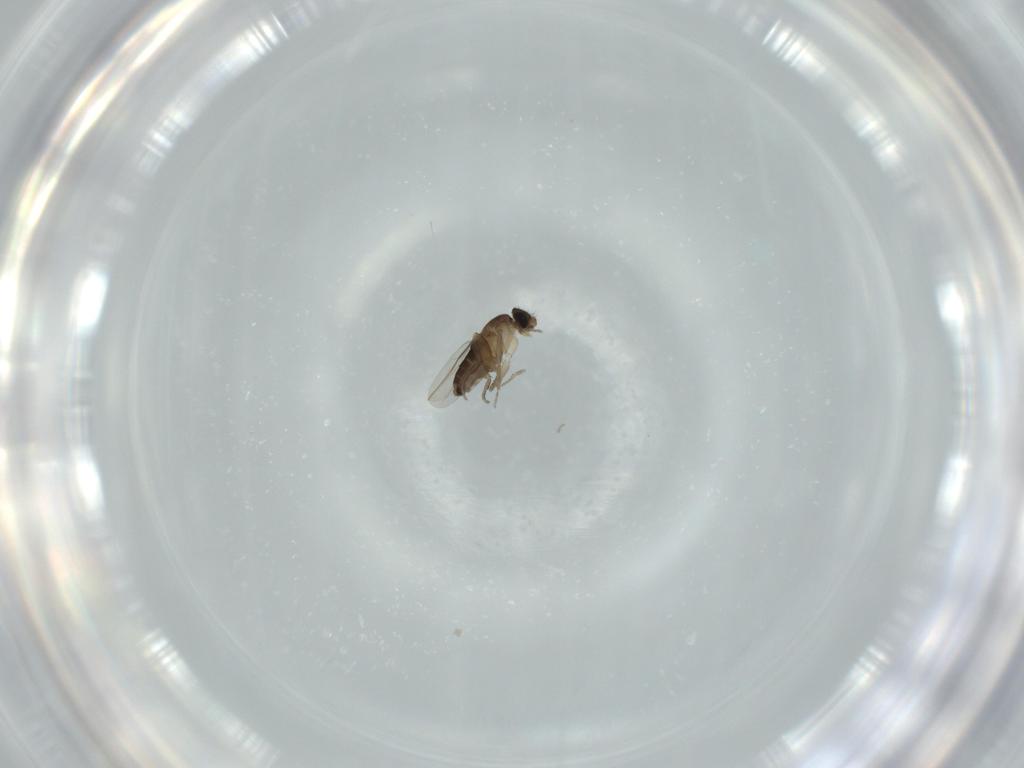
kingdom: Animalia
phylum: Arthropoda
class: Insecta
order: Diptera
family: Phoridae
